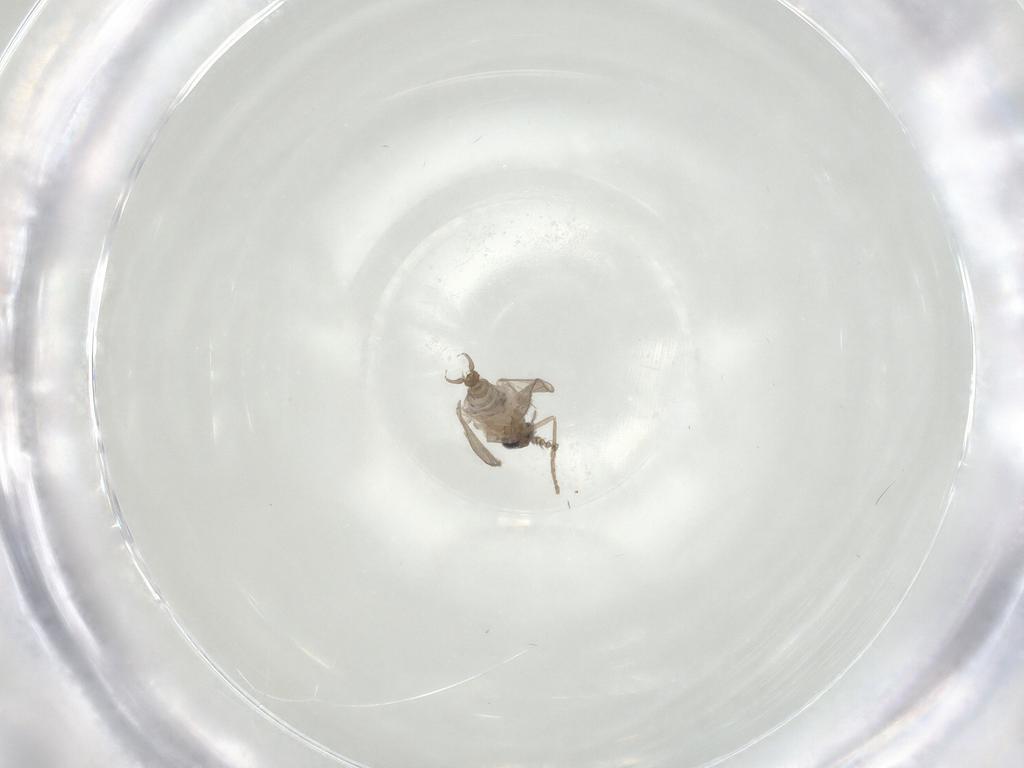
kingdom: Animalia
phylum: Arthropoda
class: Insecta
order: Diptera
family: Psychodidae
